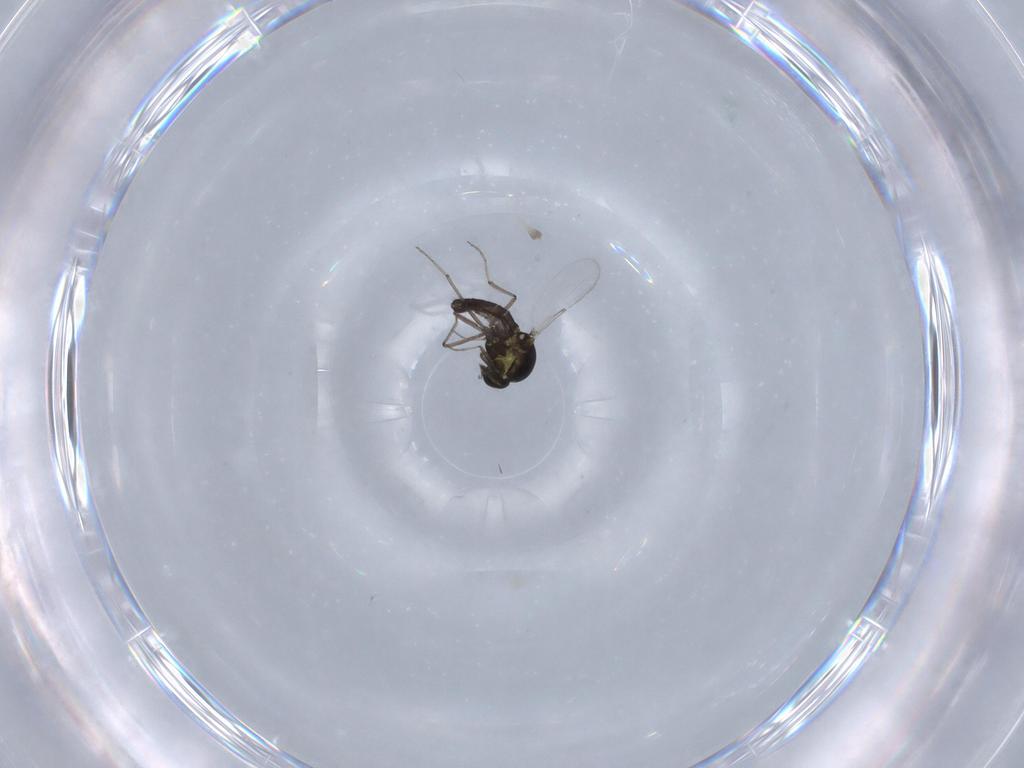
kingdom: Animalia
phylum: Arthropoda
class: Insecta
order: Diptera
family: Ceratopogonidae
